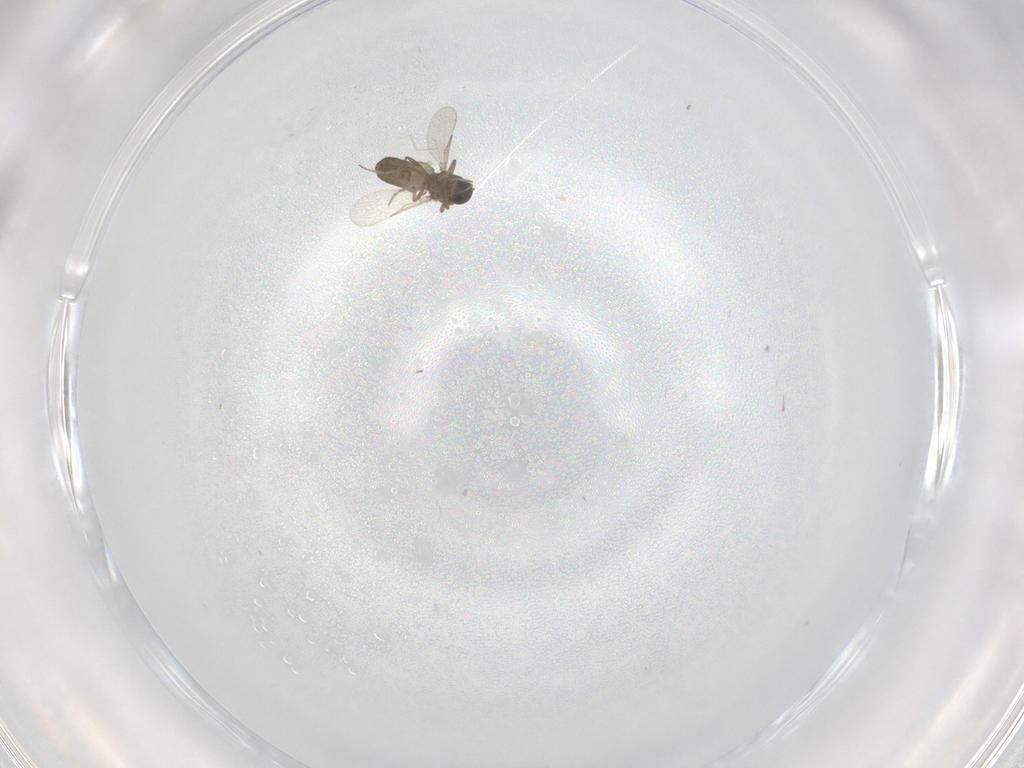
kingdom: Animalia
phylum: Arthropoda
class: Insecta
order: Diptera
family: Ceratopogonidae
